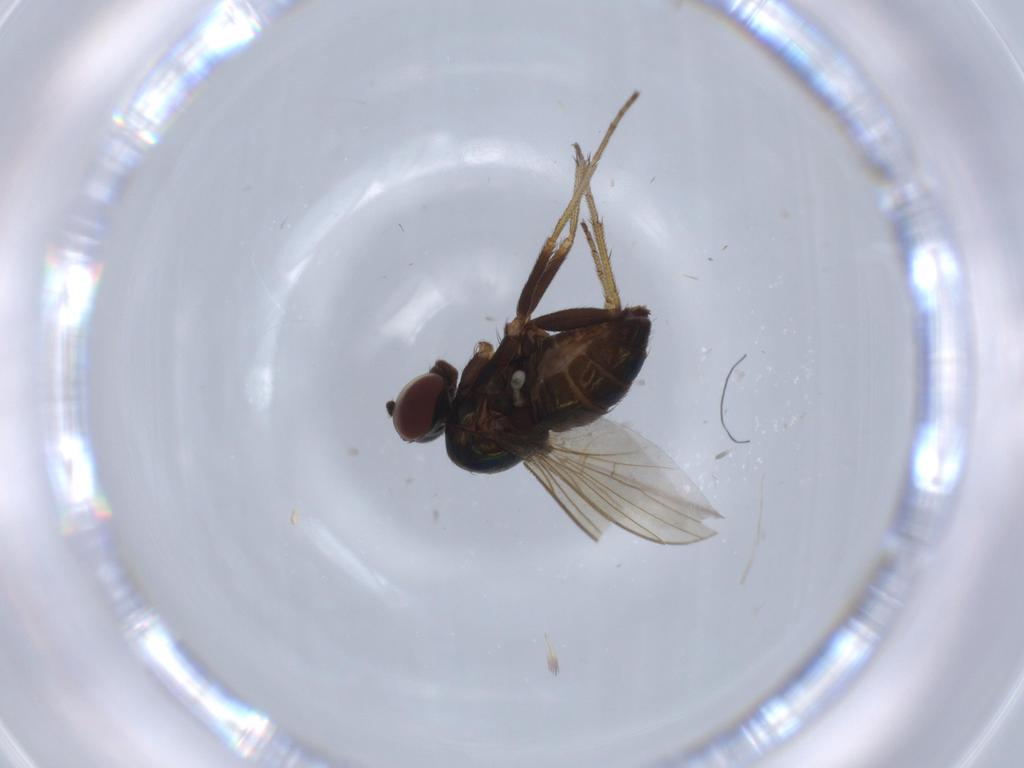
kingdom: Animalia
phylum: Arthropoda
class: Insecta
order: Diptera
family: Dolichopodidae
